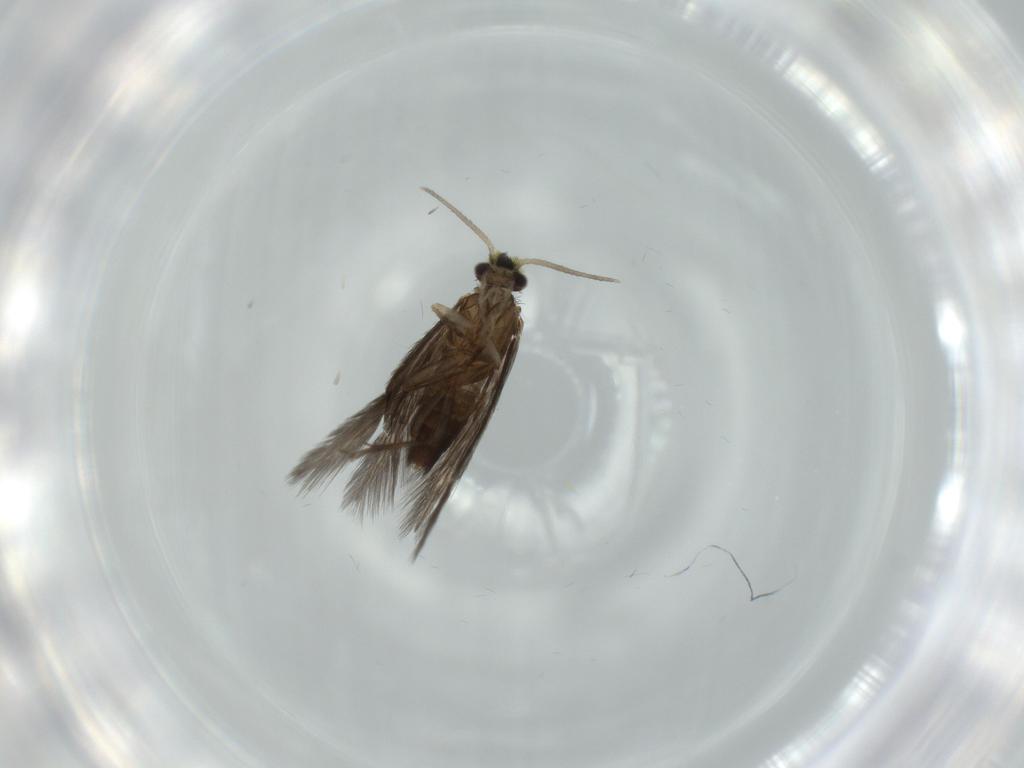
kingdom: Animalia
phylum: Arthropoda
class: Insecta
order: Trichoptera
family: Hydroptilidae
